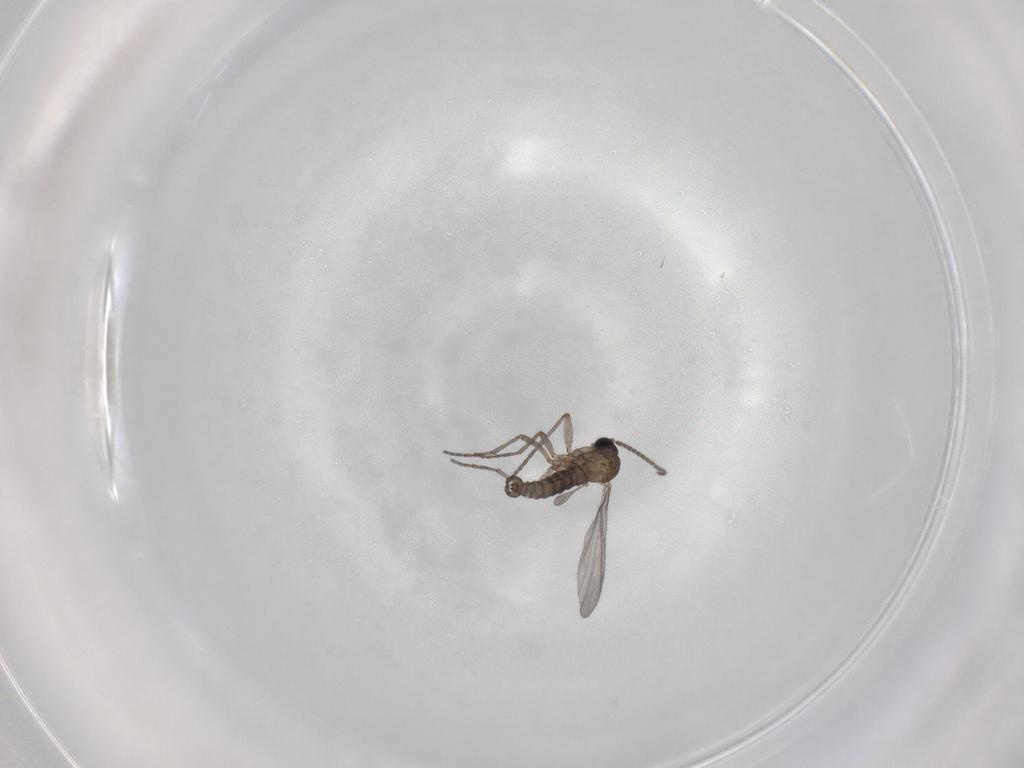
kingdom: Animalia
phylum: Arthropoda
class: Insecta
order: Diptera
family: Sciaridae
